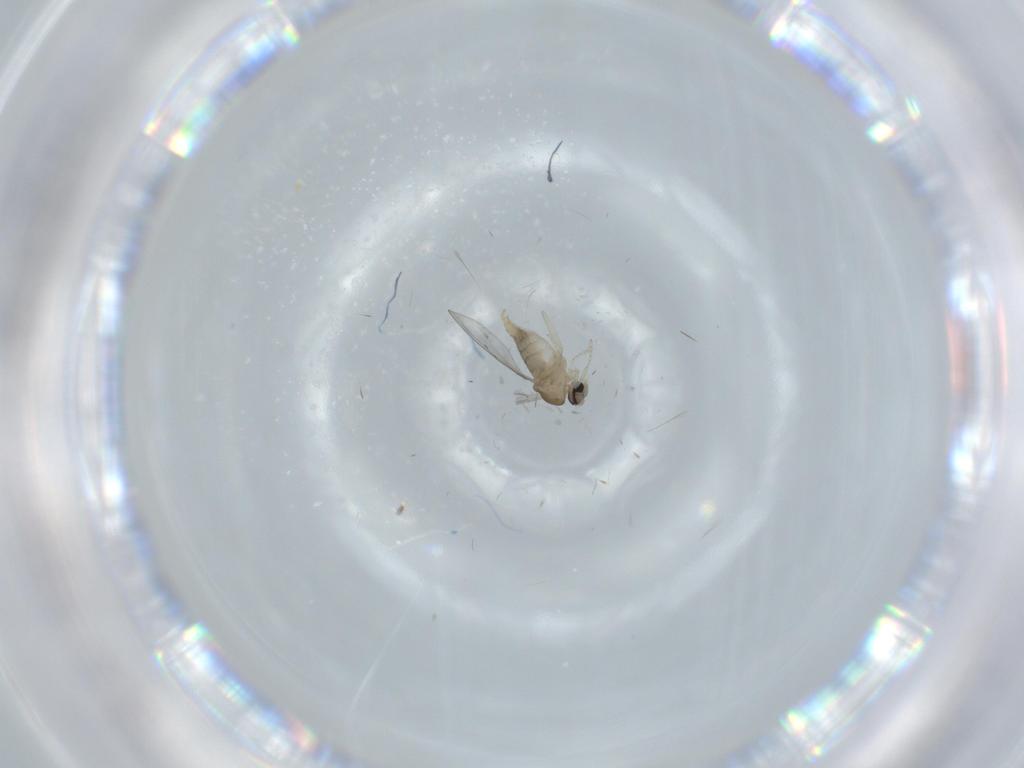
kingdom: Animalia
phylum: Arthropoda
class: Insecta
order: Diptera
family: Cecidomyiidae
